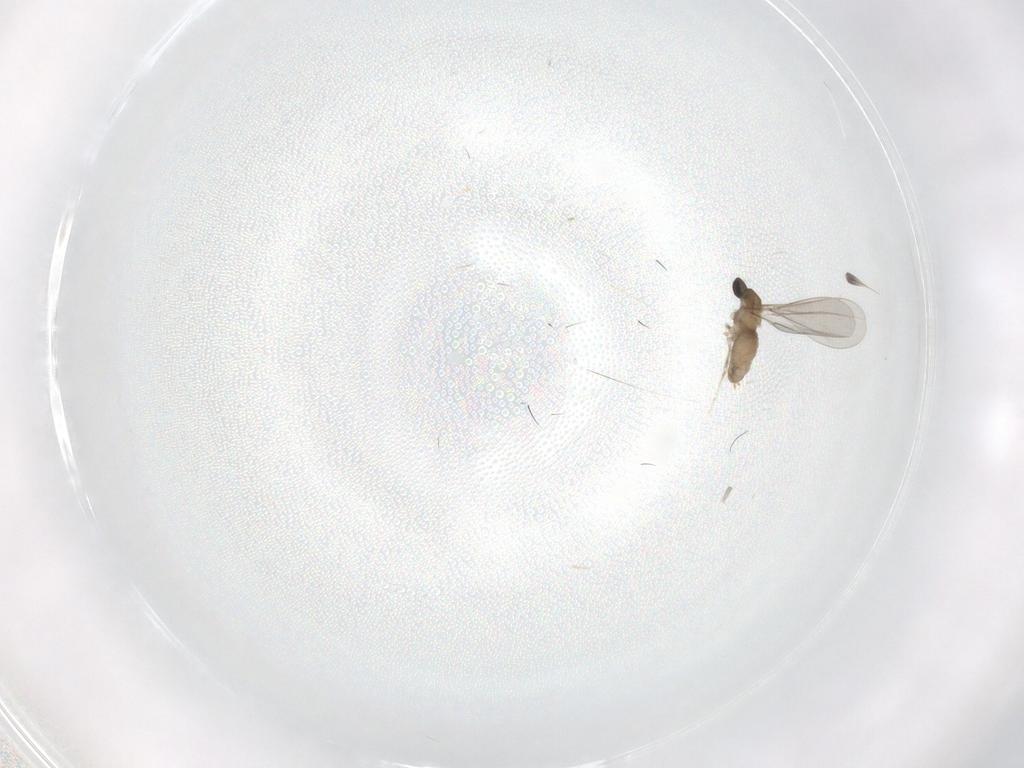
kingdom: Animalia
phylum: Arthropoda
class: Insecta
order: Diptera
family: Cecidomyiidae
